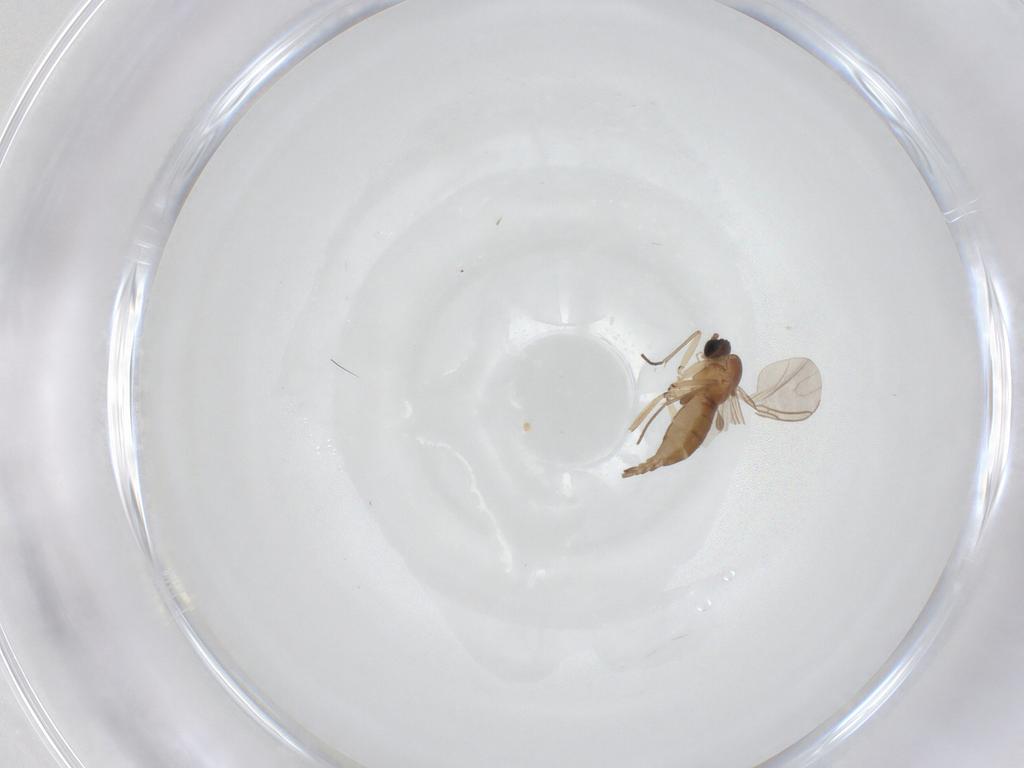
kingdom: Animalia
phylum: Arthropoda
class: Insecta
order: Diptera
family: Sciaridae
